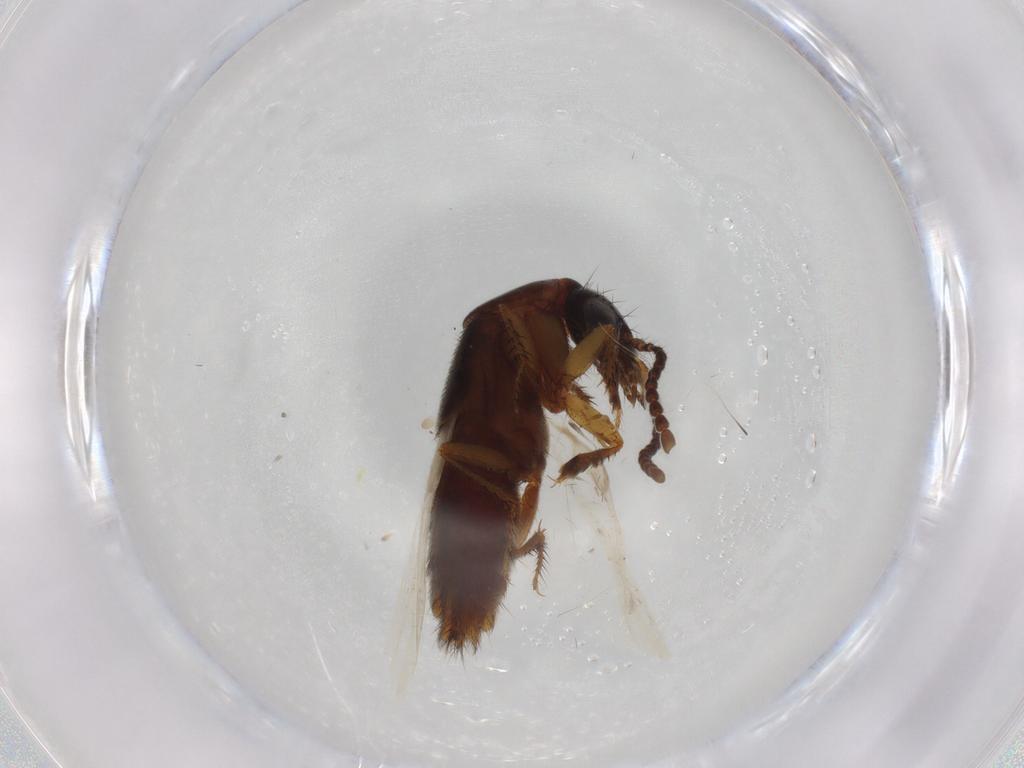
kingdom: Animalia
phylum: Arthropoda
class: Insecta
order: Coleoptera
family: Staphylinidae
